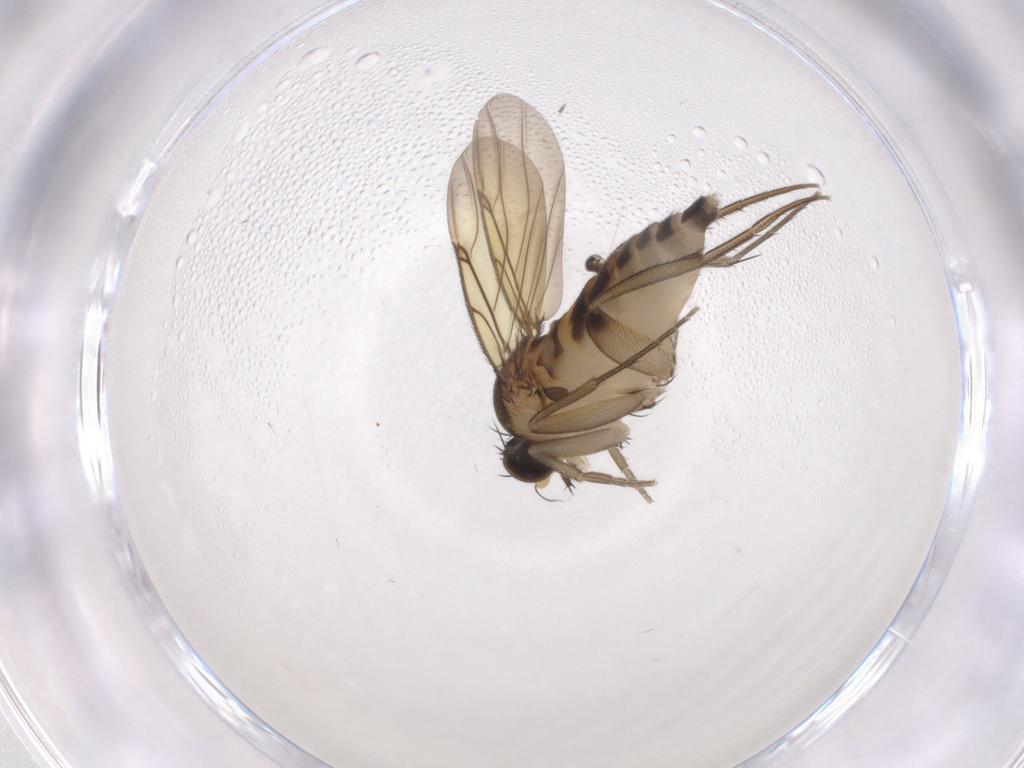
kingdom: Animalia
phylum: Arthropoda
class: Insecta
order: Diptera
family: Phoridae
